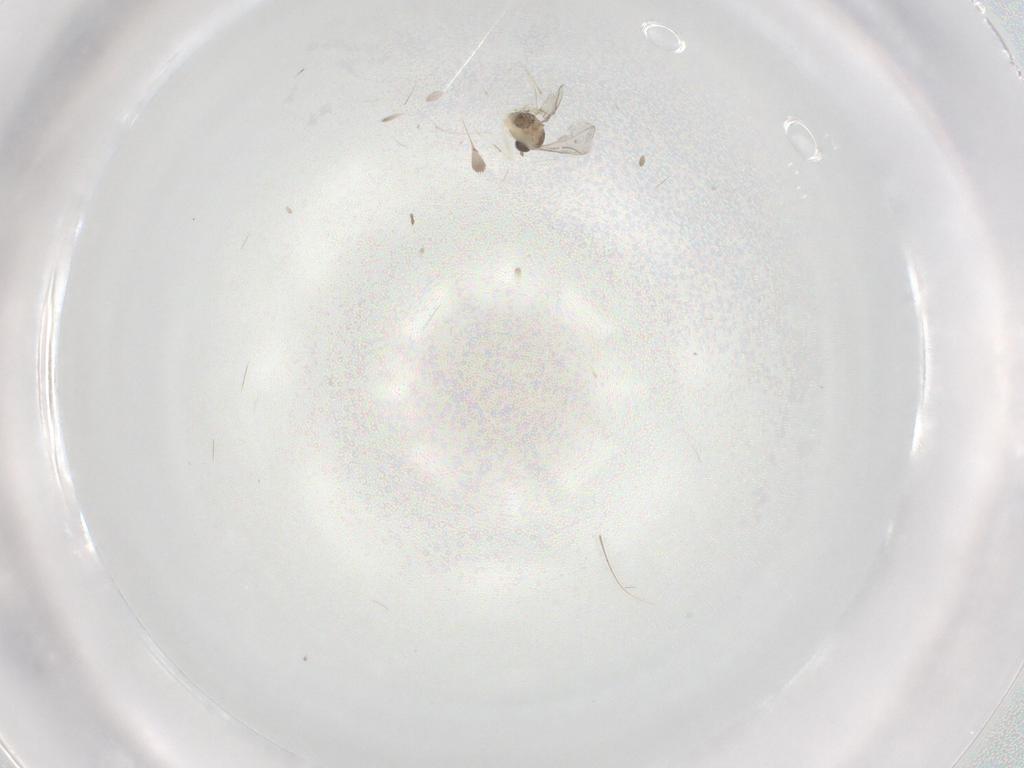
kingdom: Animalia
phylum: Arthropoda
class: Insecta
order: Diptera
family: Cecidomyiidae
